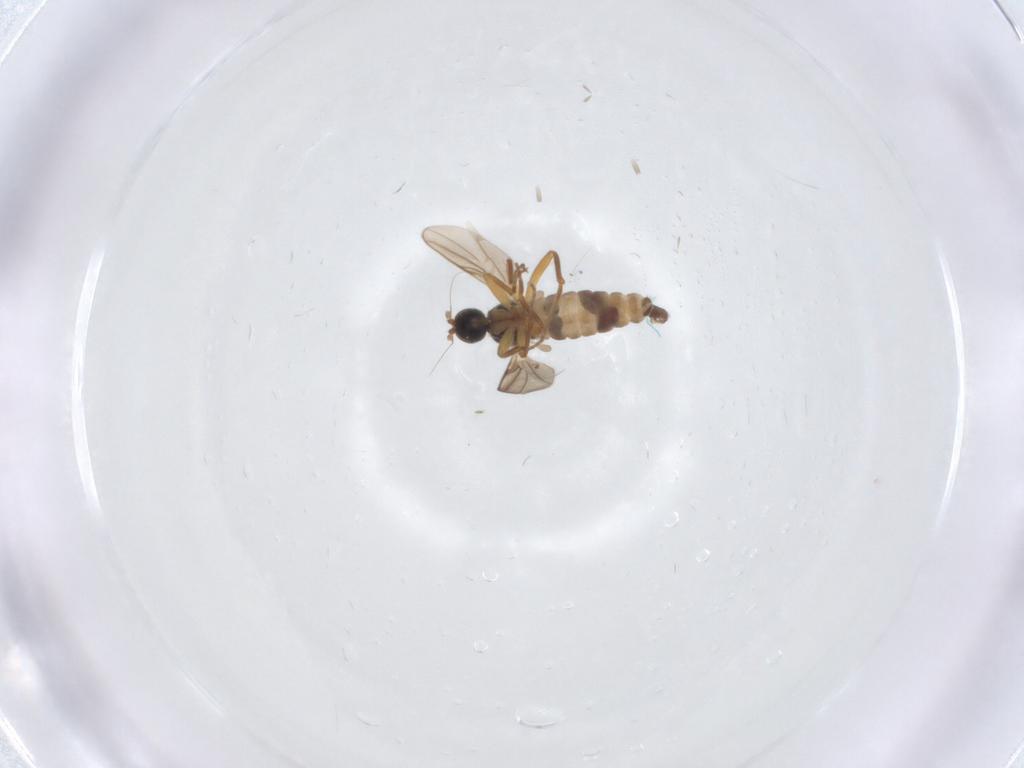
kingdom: Animalia
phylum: Arthropoda
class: Insecta
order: Diptera
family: Hybotidae
